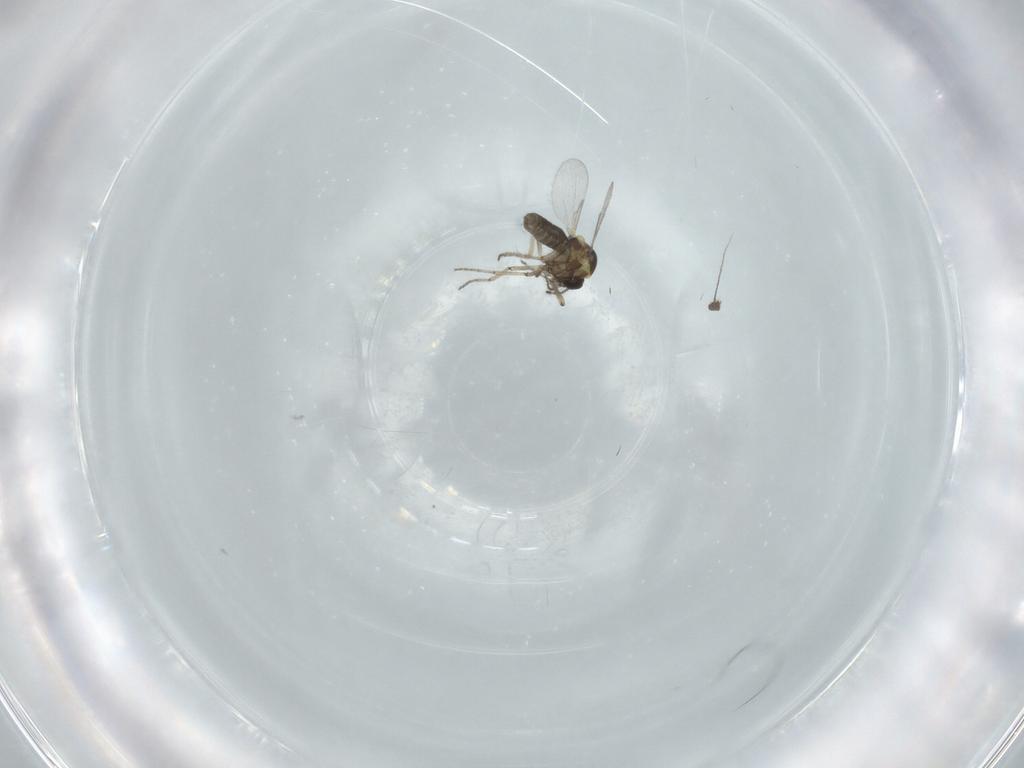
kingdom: Animalia
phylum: Arthropoda
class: Insecta
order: Diptera
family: Ceratopogonidae
